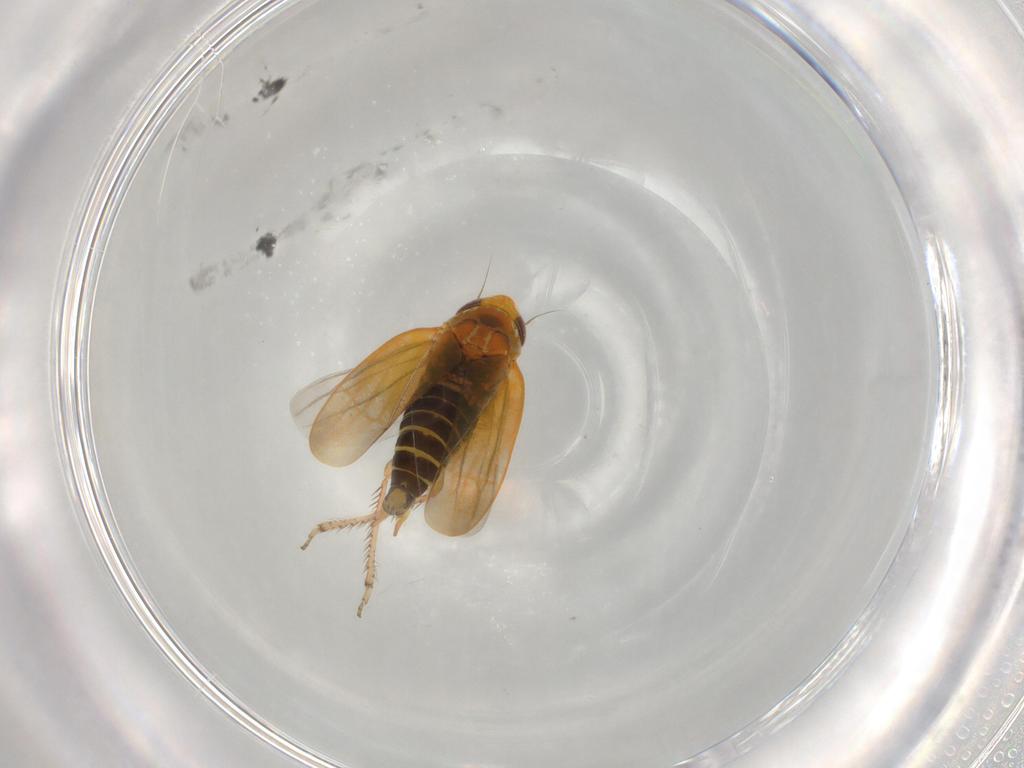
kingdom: Animalia
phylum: Arthropoda
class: Insecta
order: Hemiptera
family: Cicadellidae
